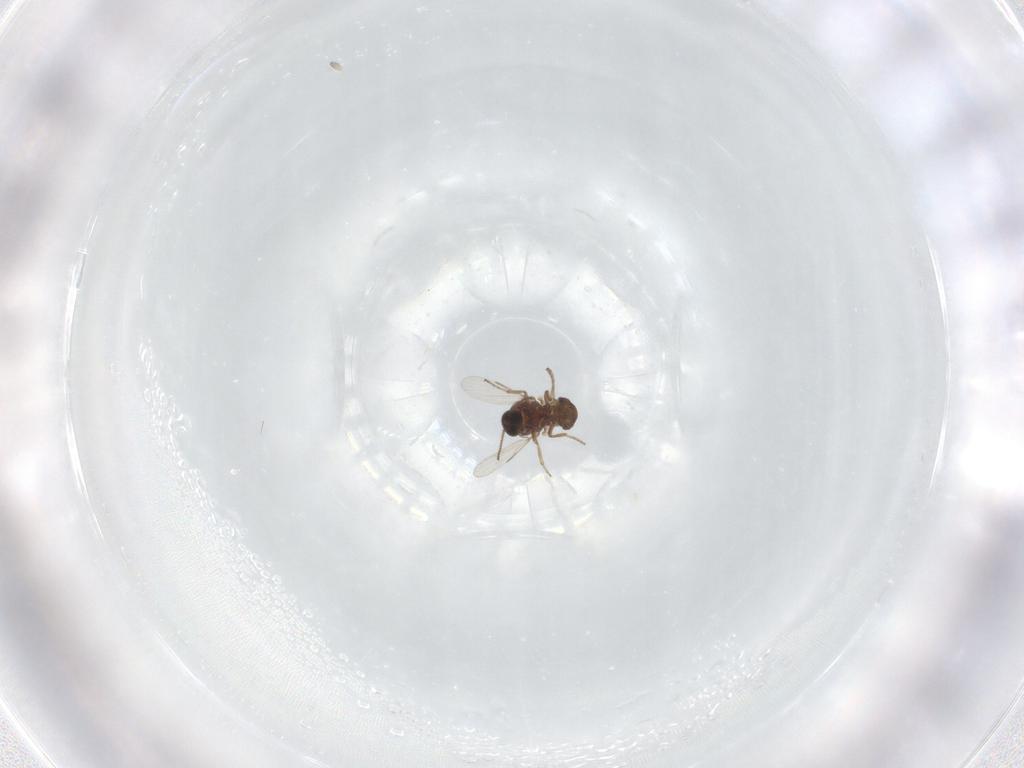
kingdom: Animalia
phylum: Arthropoda
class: Insecta
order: Diptera
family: Ceratopogonidae
